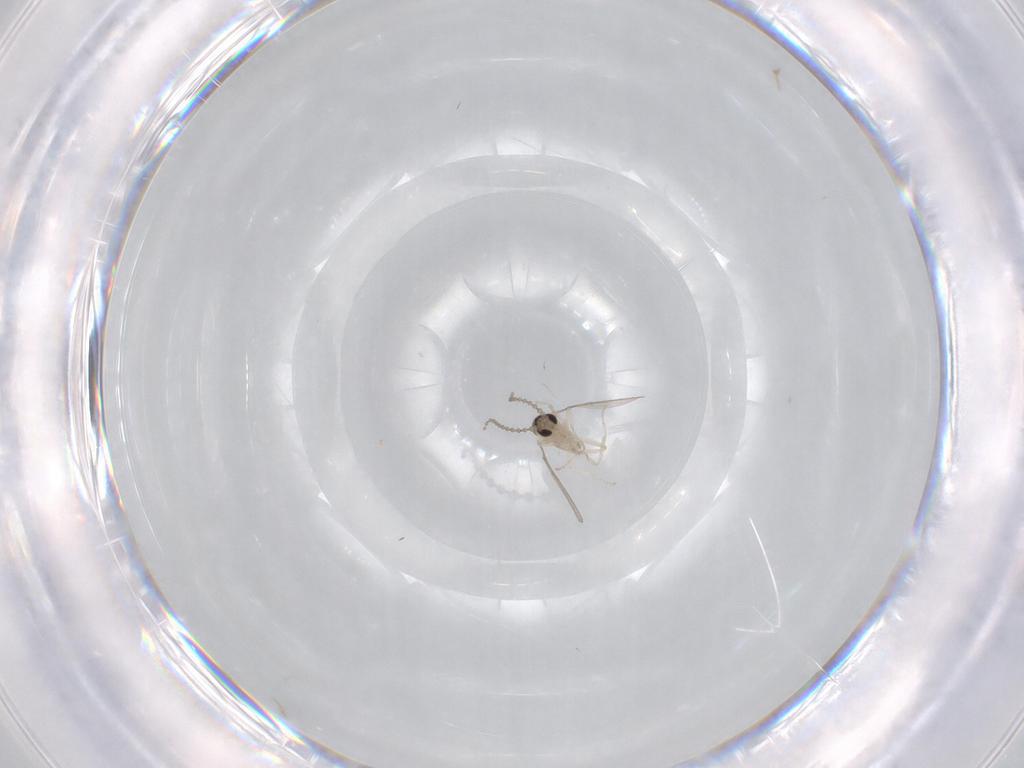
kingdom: Animalia
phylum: Arthropoda
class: Insecta
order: Diptera
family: Cecidomyiidae
